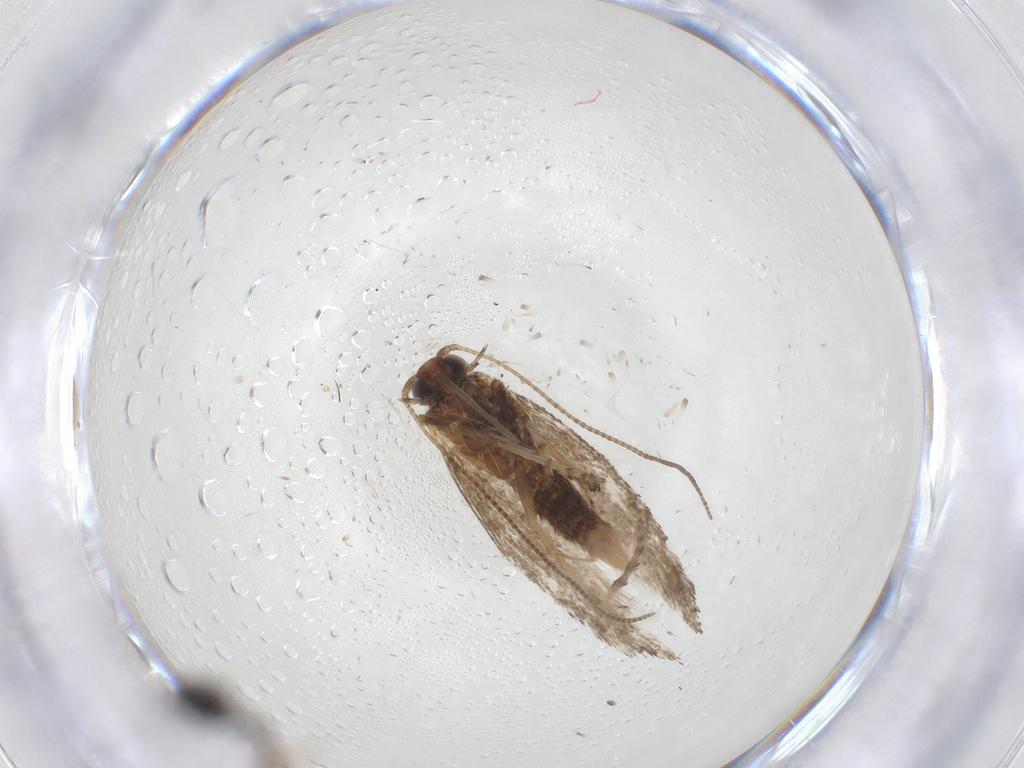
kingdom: Animalia
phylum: Arthropoda
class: Insecta
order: Lepidoptera
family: Gracillariidae
